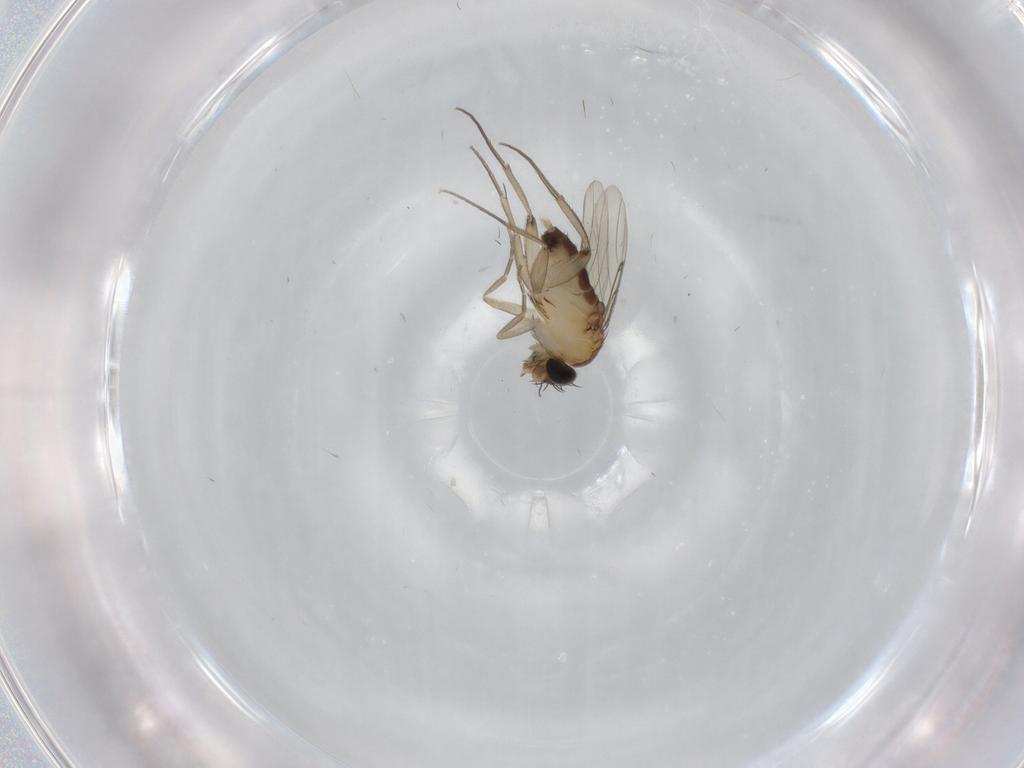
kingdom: Animalia
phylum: Arthropoda
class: Insecta
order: Diptera
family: Phoridae
